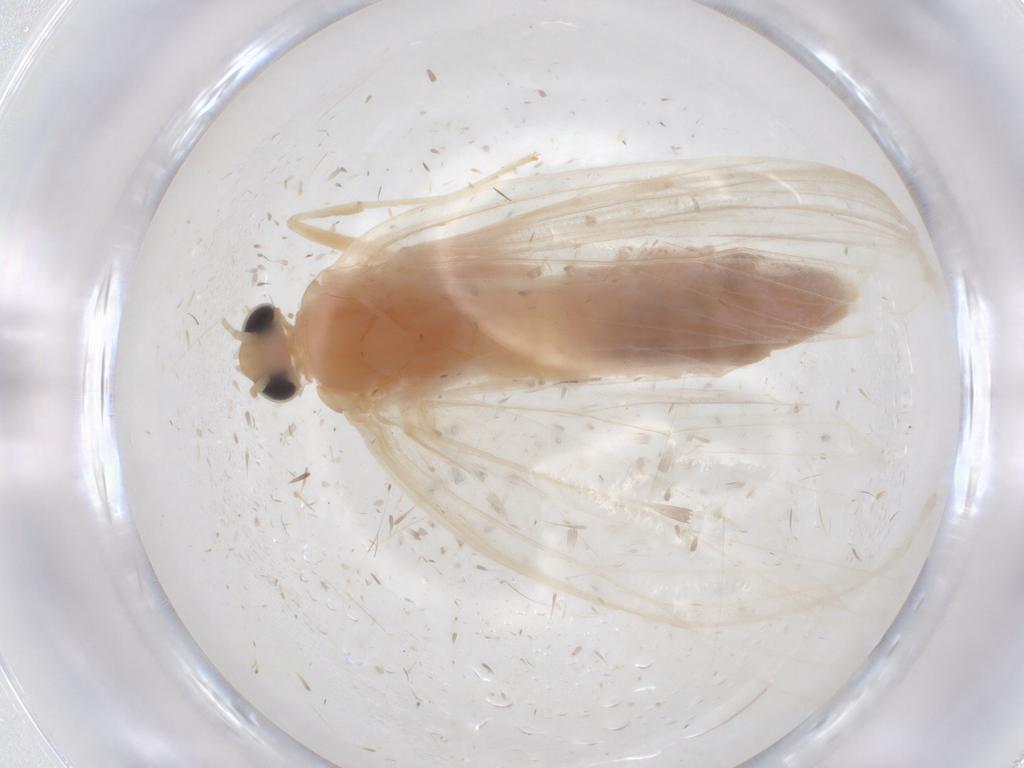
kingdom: Animalia
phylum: Arthropoda
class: Insecta
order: Lepidoptera
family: Crambidae
